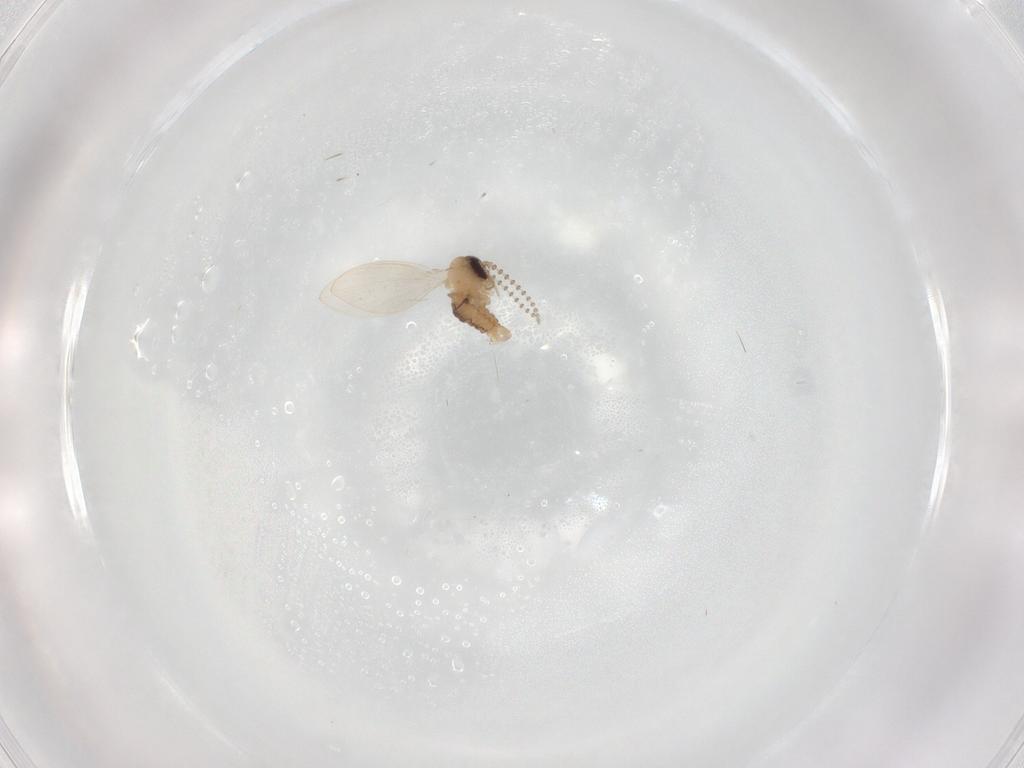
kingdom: Animalia
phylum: Arthropoda
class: Insecta
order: Diptera
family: Psychodidae
